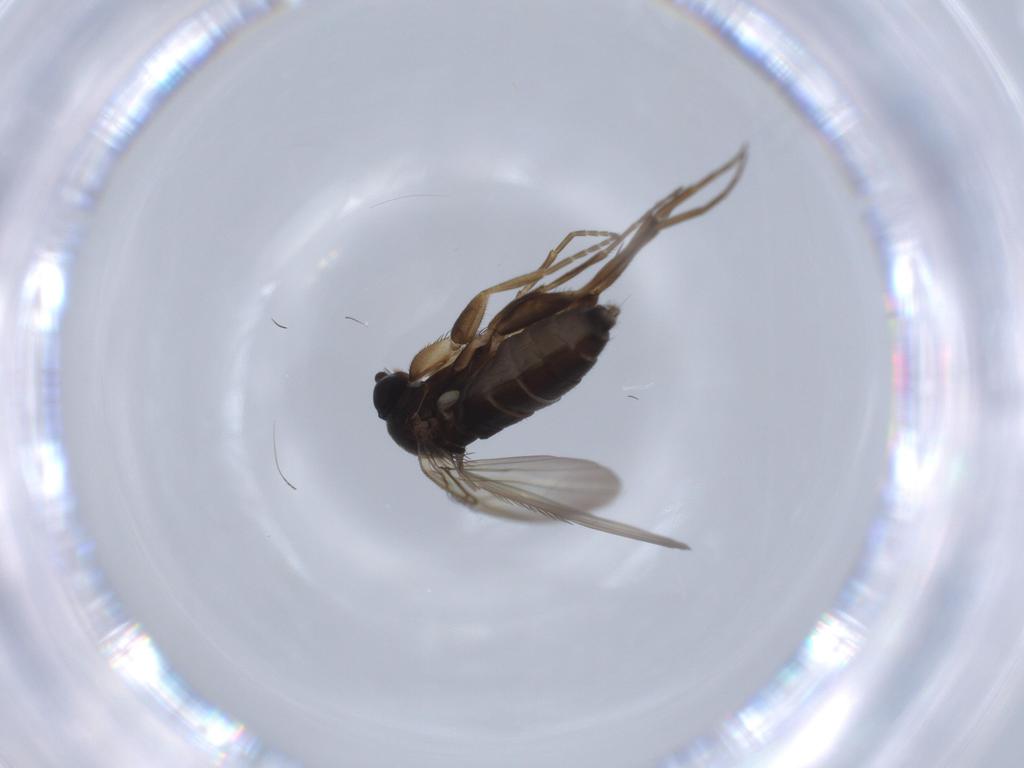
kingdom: Animalia
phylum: Arthropoda
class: Insecta
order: Diptera
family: Phoridae
